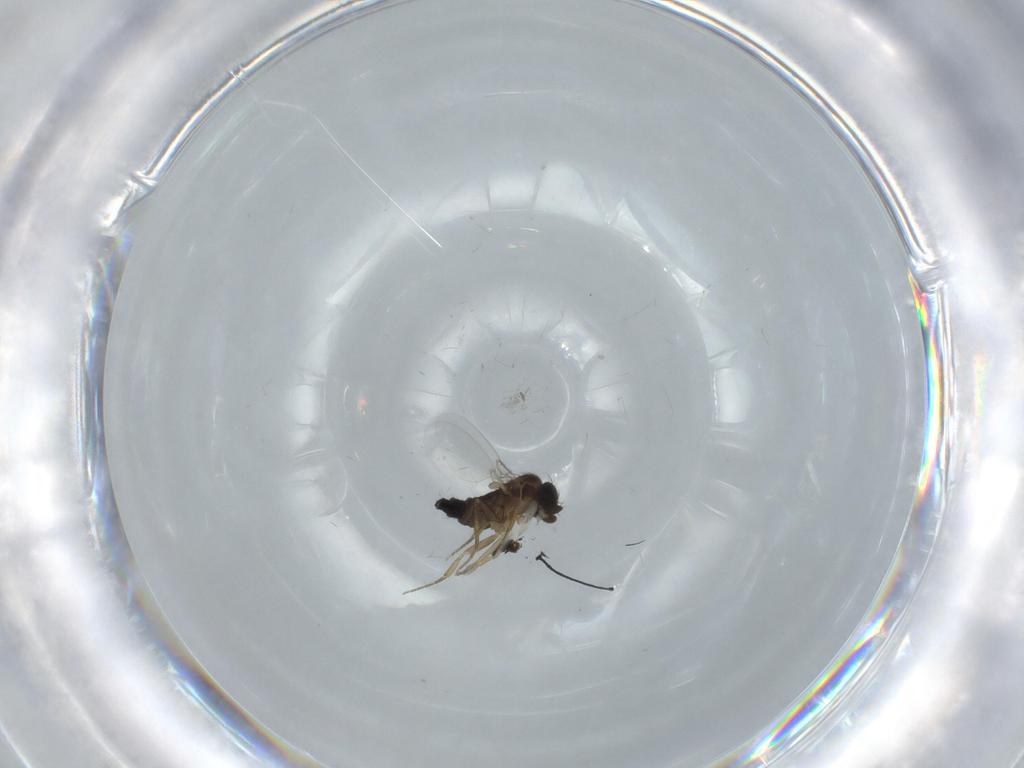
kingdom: Animalia
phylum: Arthropoda
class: Insecta
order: Diptera
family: Phoridae
